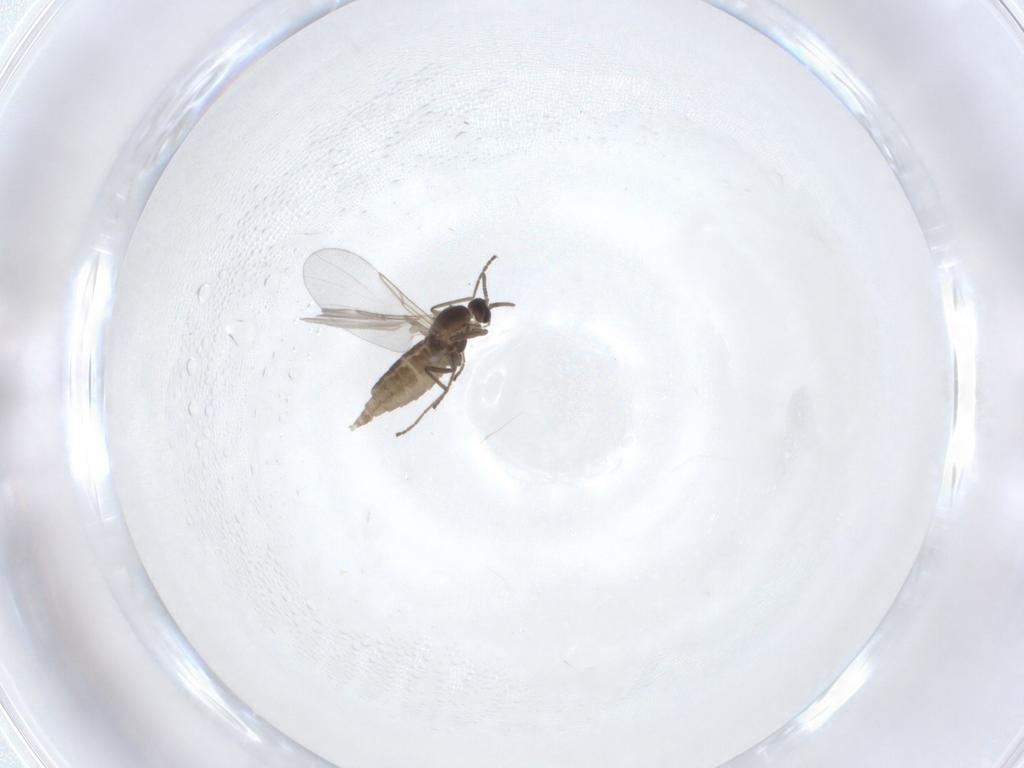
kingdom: Animalia
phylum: Arthropoda
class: Insecta
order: Diptera
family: Cecidomyiidae
